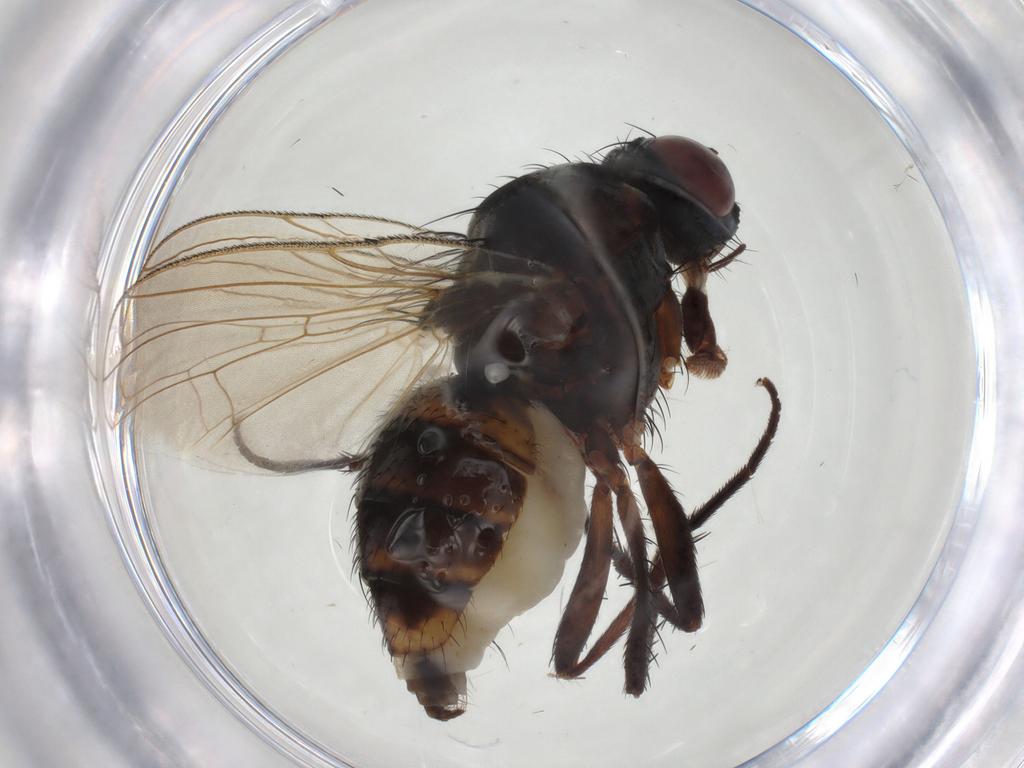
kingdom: Animalia
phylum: Arthropoda
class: Insecta
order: Diptera
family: Anthomyiidae
